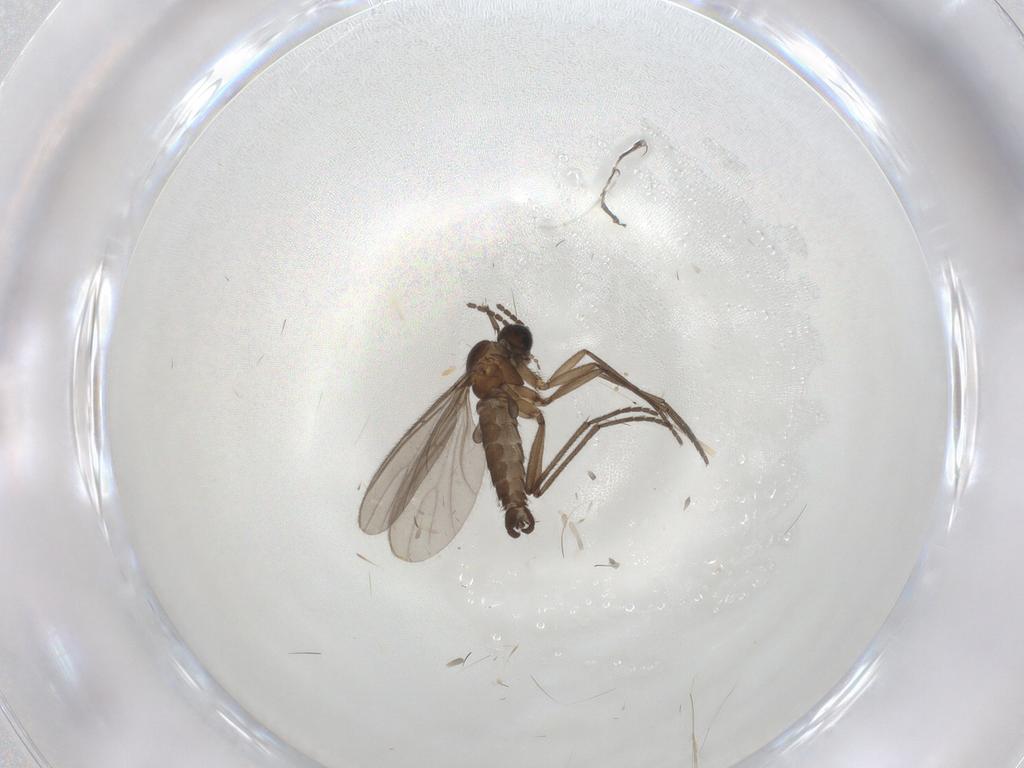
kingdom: Animalia
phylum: Arthropoda
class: Insecta
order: Diptera
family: Sciaridae
